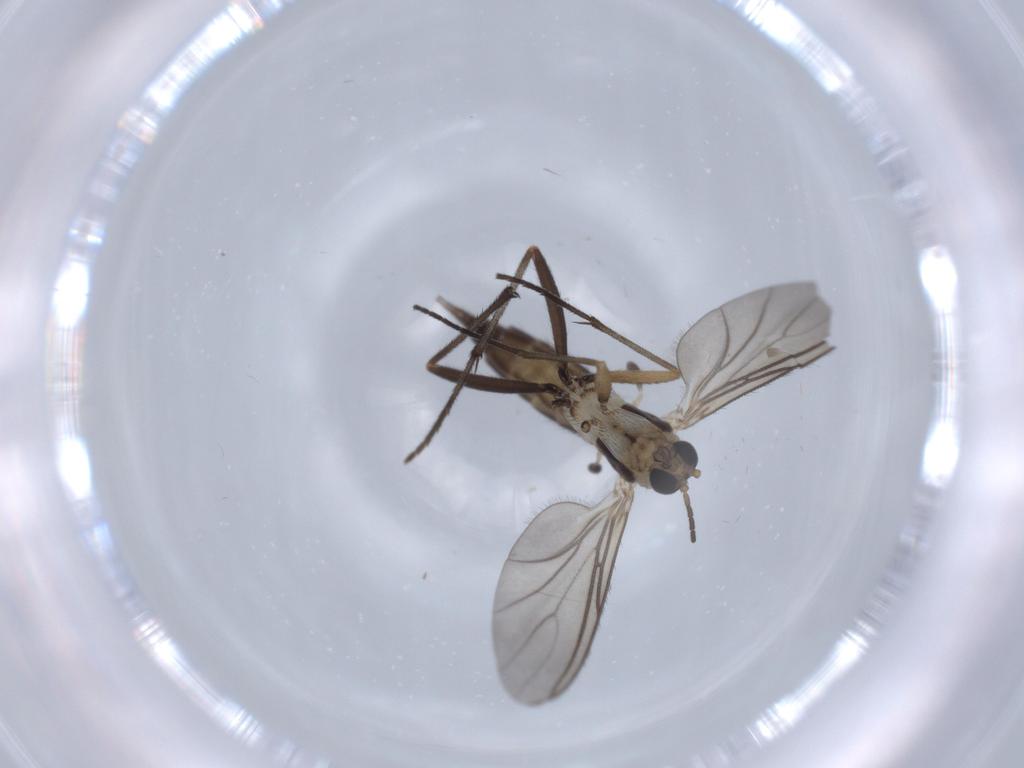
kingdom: Animalia
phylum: Arthropoda
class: Insecta
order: Diptera
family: Sciaridae
